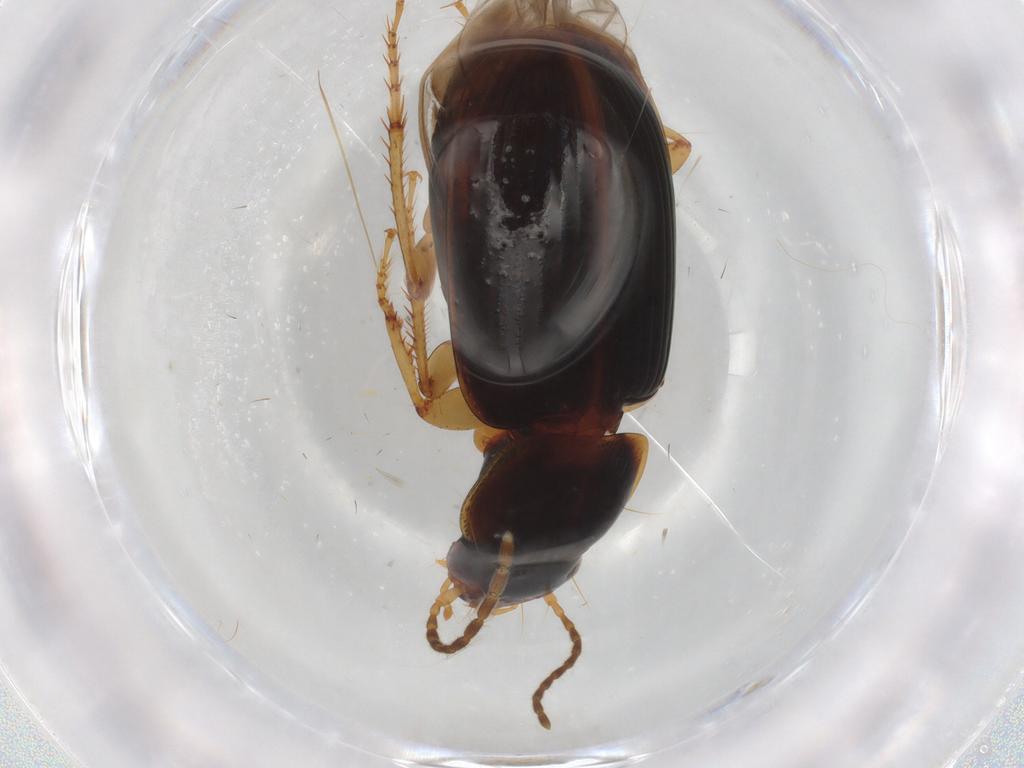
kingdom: Animalia
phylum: Arthropoda
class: Insecta
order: Coleoptera
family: Carabidae
